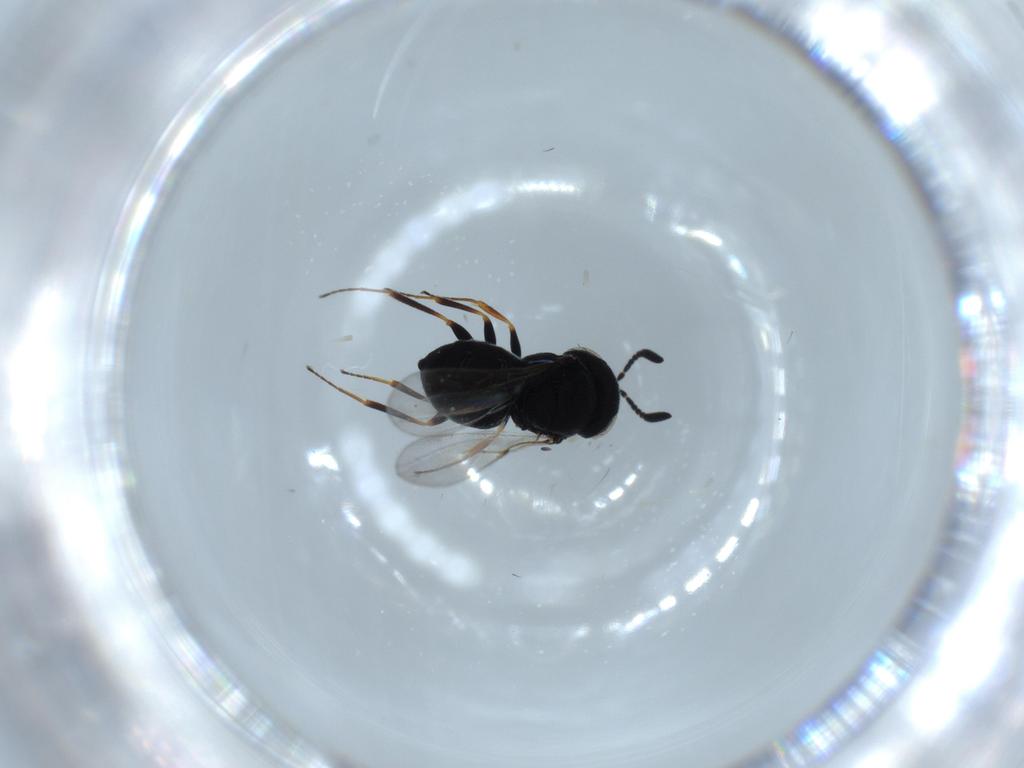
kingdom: Animalia
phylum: Arthropoda
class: Insecta
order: Hymenoptera
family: Scelionidae
